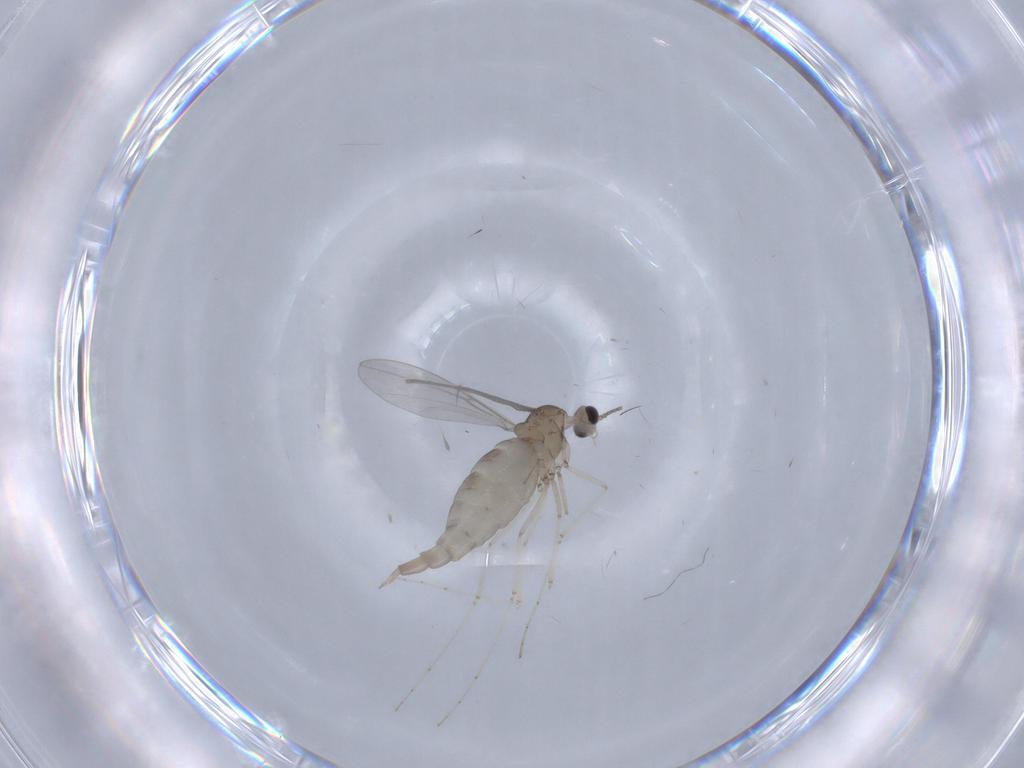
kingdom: Animalia
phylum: Arthropoda
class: Insecta
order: Diptera
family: Cecidomyiidae
